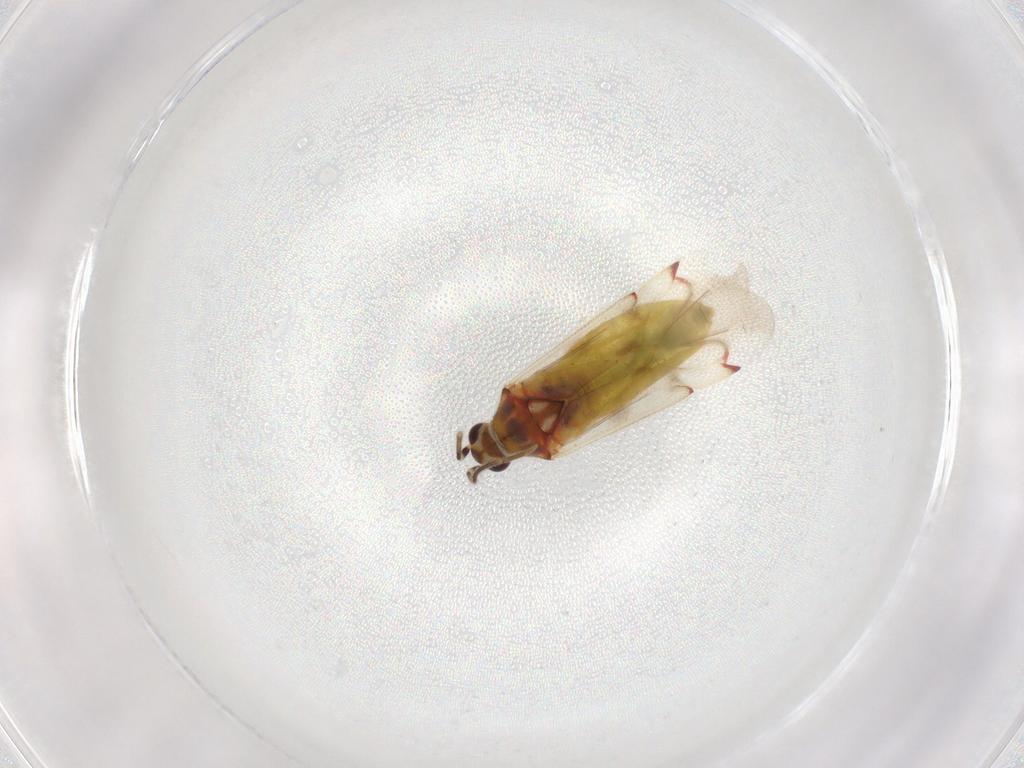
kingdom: Animalia
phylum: Arthropoda
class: Insecta
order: Hemiptera
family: Miridae
